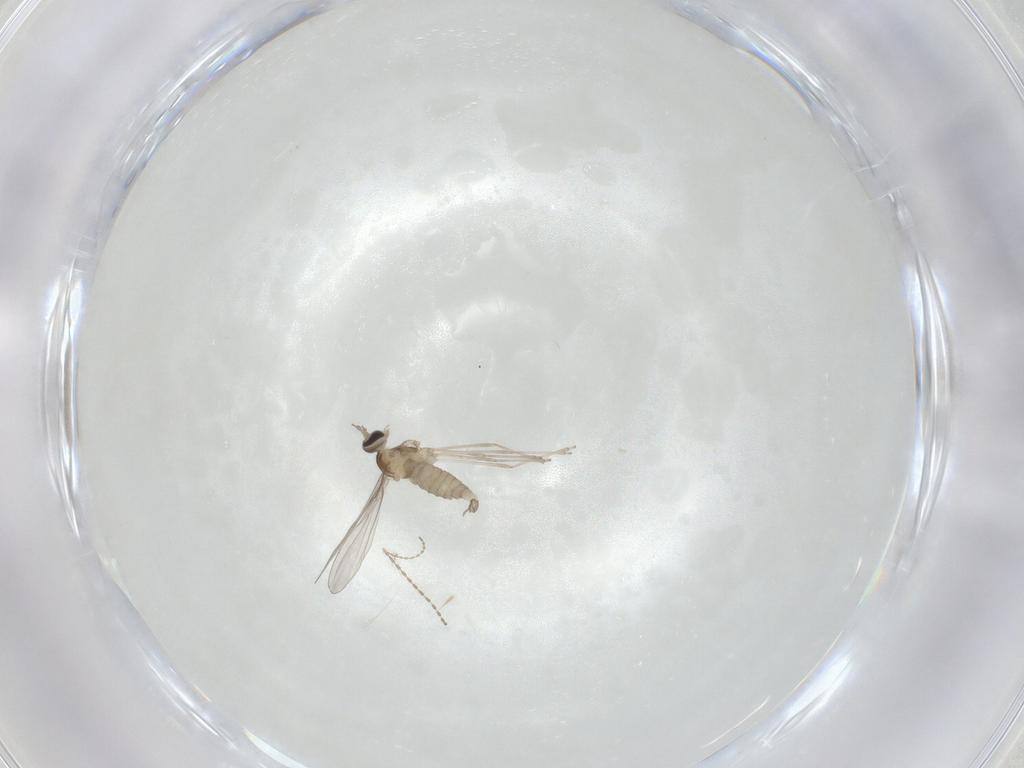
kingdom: Animalia
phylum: Arthropoda
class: Insecta
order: Diptera
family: Cecidomyiidae
